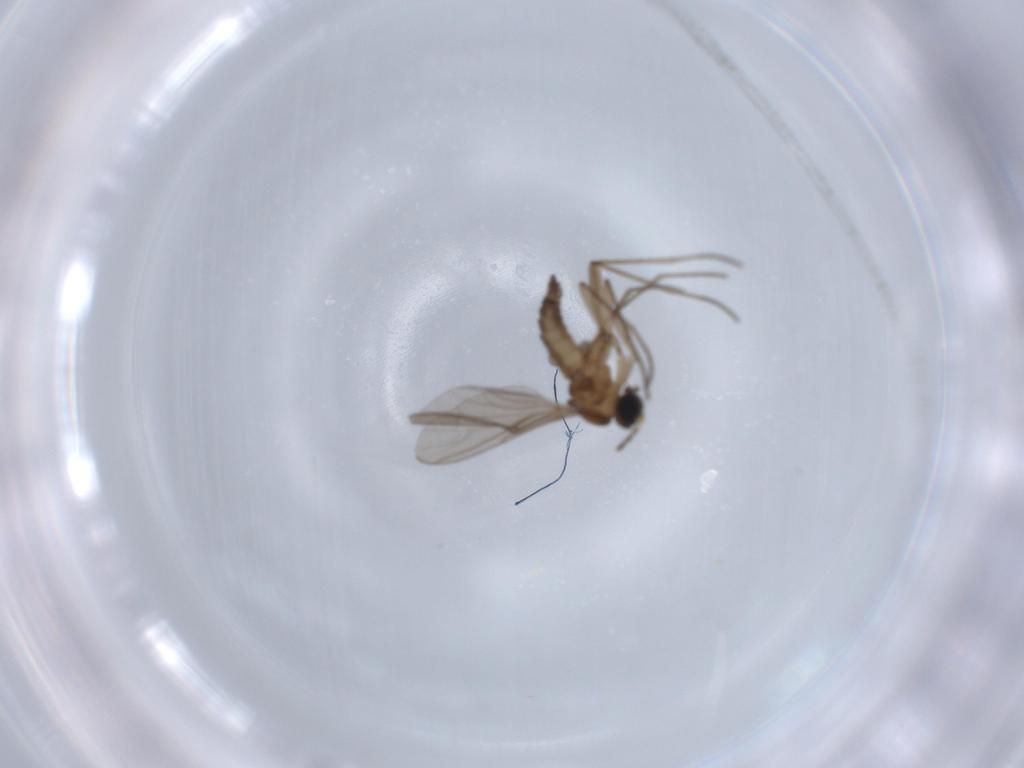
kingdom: Animalia
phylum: Arthropoda
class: Insecta
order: Diptera
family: Sciaridae
